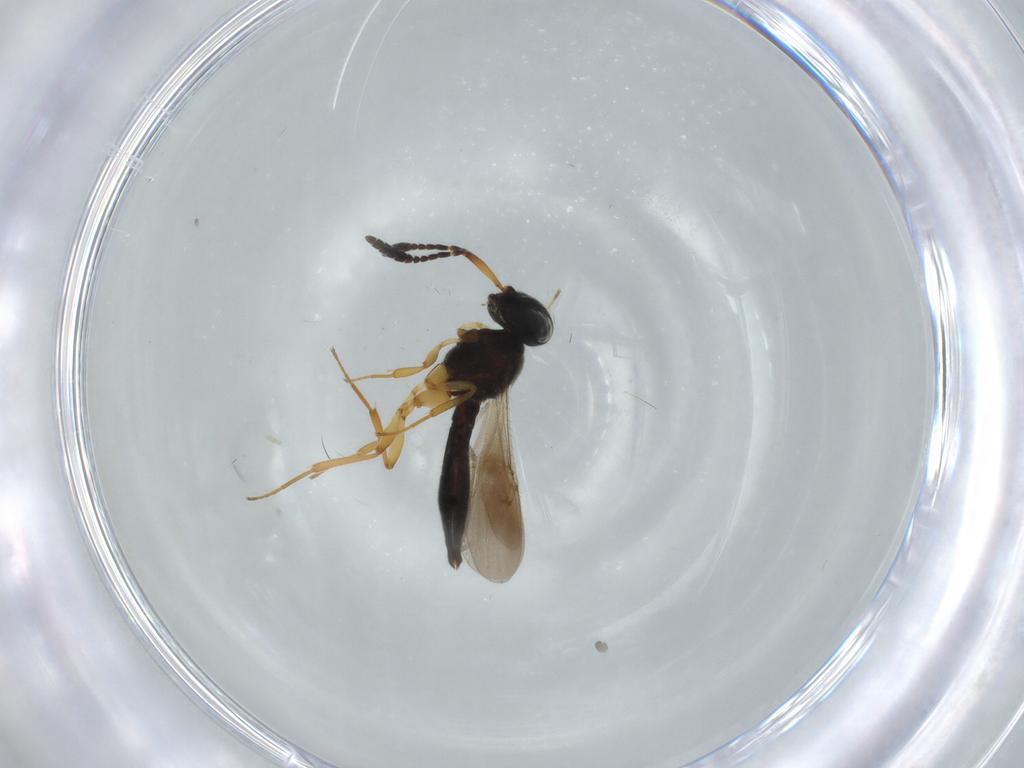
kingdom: Animalia
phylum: Arthropoda
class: Insecta
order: Hymenoptera
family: Scelionidae
